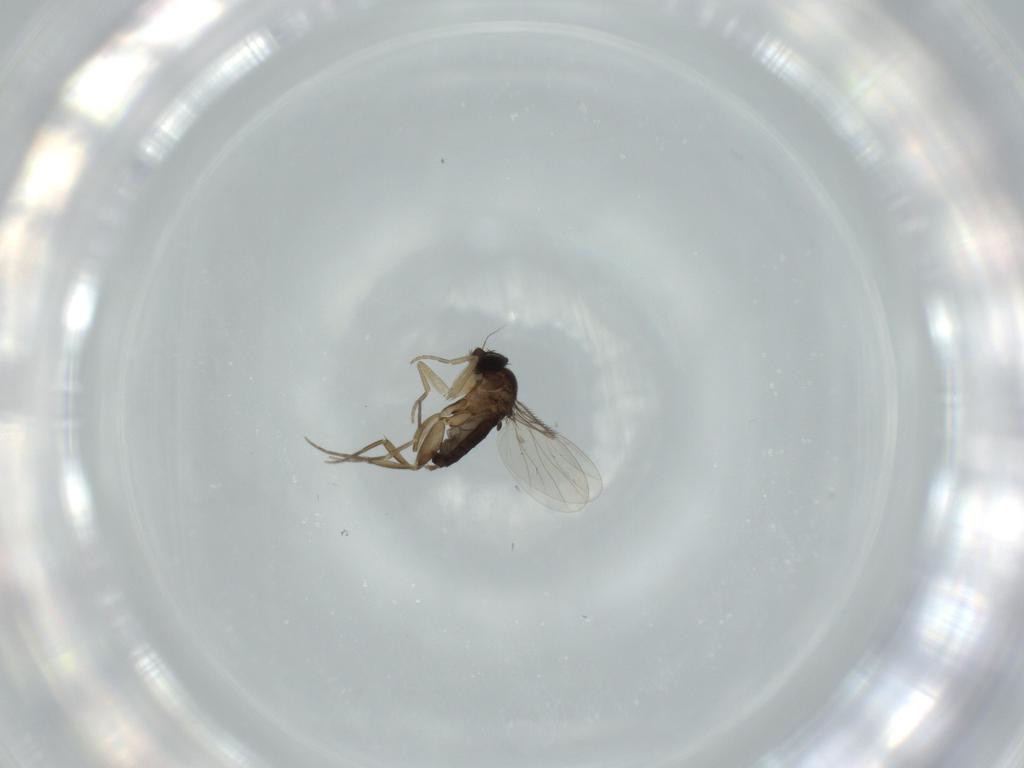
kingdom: Animalia
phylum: Arthropoda
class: Insecta
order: Diptera
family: Phoridae
